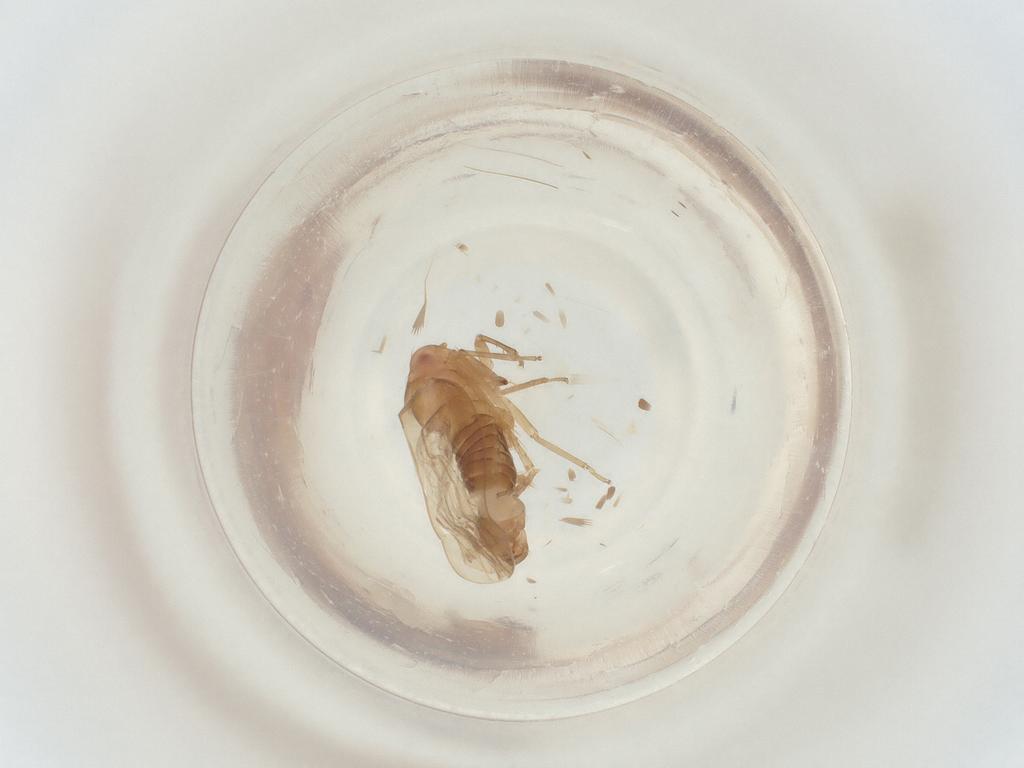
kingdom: Animalia
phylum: Arthropoda
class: Insecta
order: Hemiptera
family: Cicadellidae
